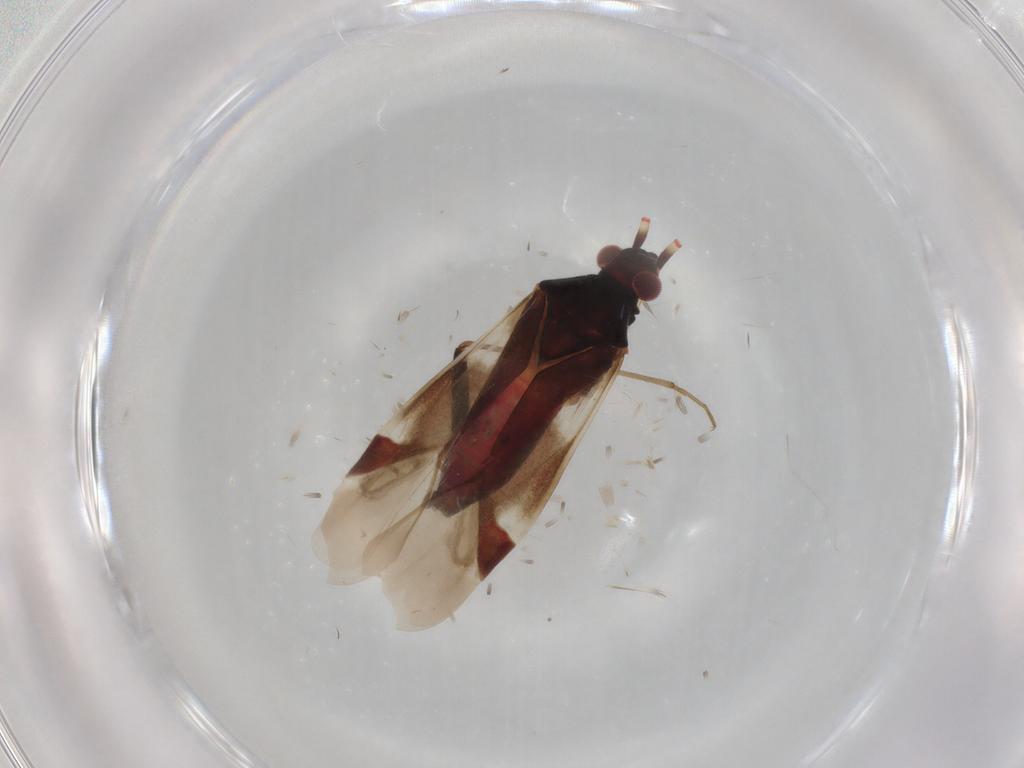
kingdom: Animalia
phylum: Arthropoda
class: Insecta
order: Hemiptera
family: Miridae
